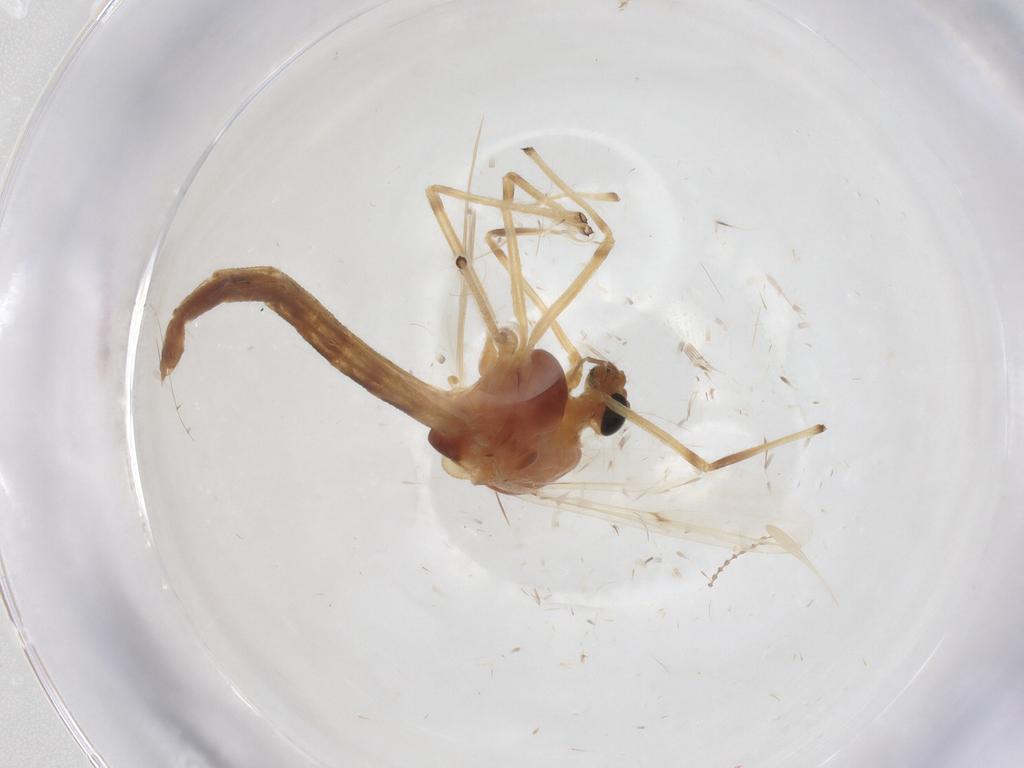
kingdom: Animalia
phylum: Arthropoda
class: Insecta
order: Diptera
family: Chironomidae
